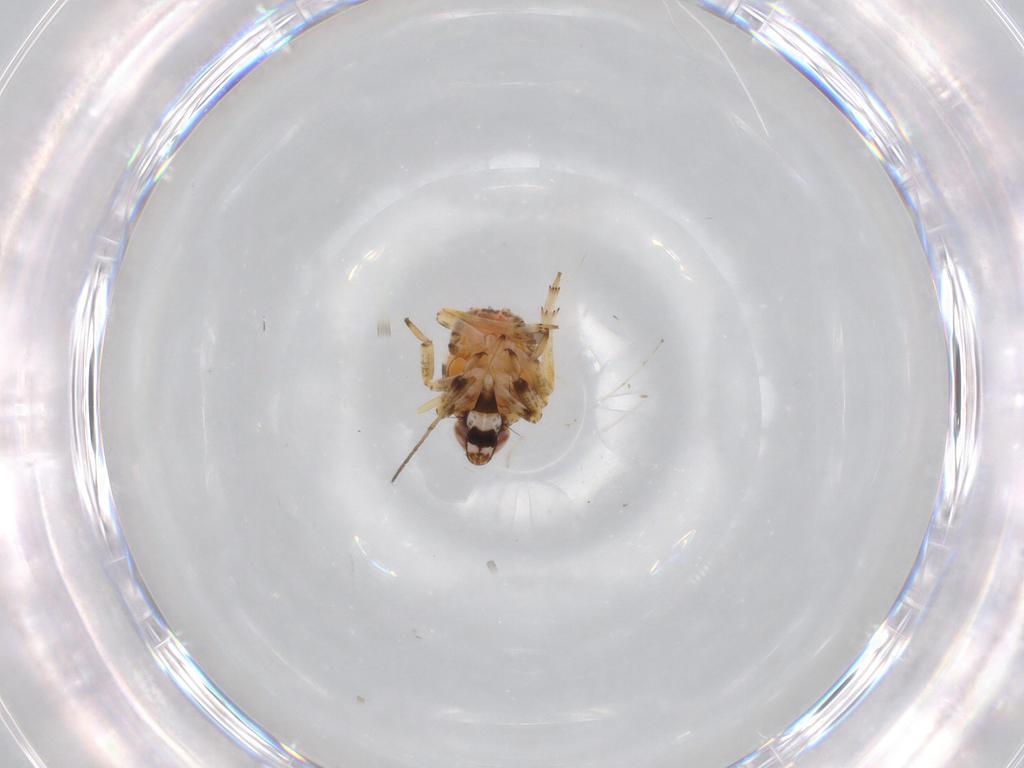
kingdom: Animalia
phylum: Arthropoda
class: Insecta
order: Hemiptera
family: Issidae
